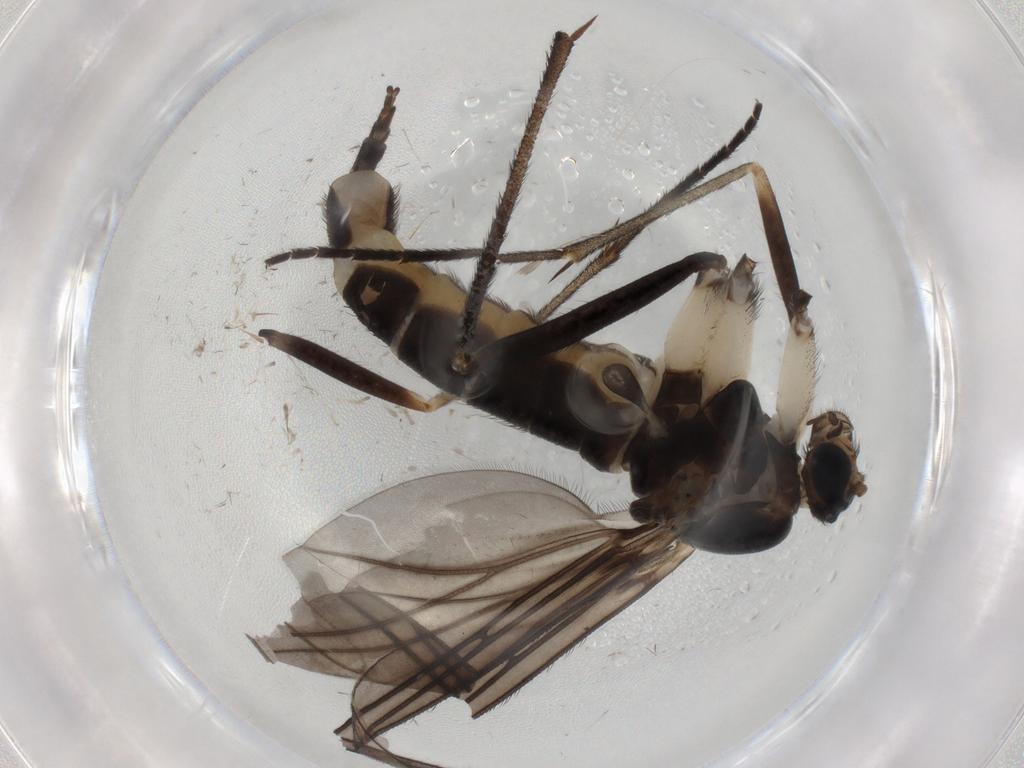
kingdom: Animalia
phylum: Arthropoda
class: Insecta
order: Diptera
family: Sciaridae
